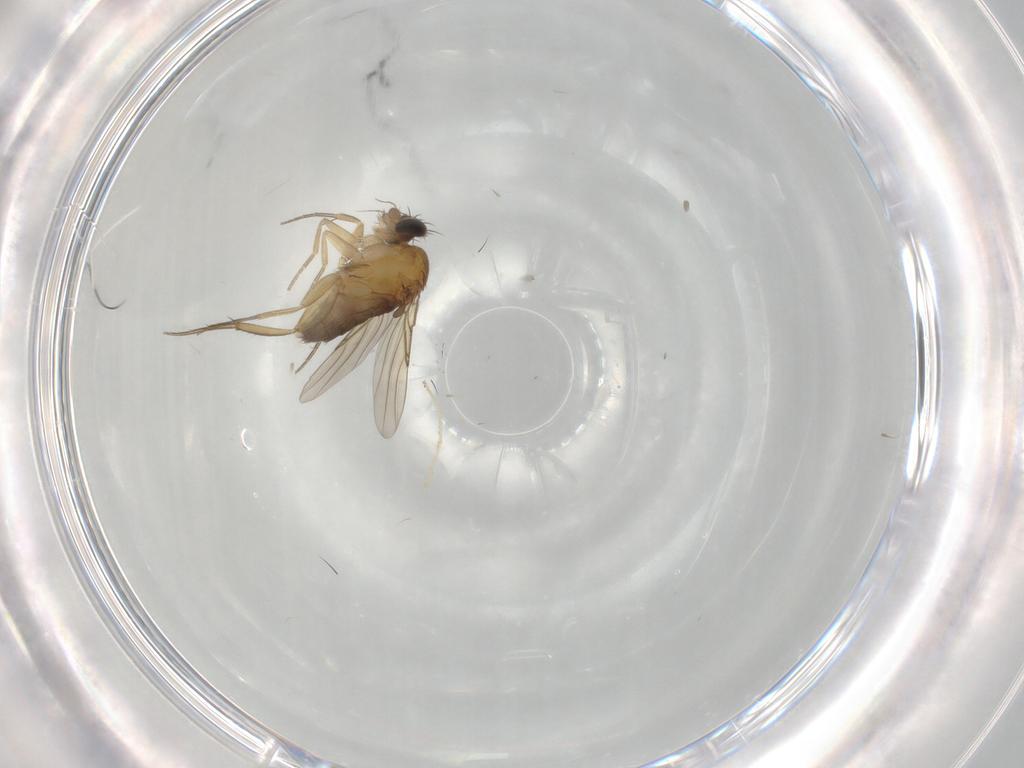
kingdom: Animalia
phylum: Arthropoda
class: Insecta
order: Diptera
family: Phoridae
